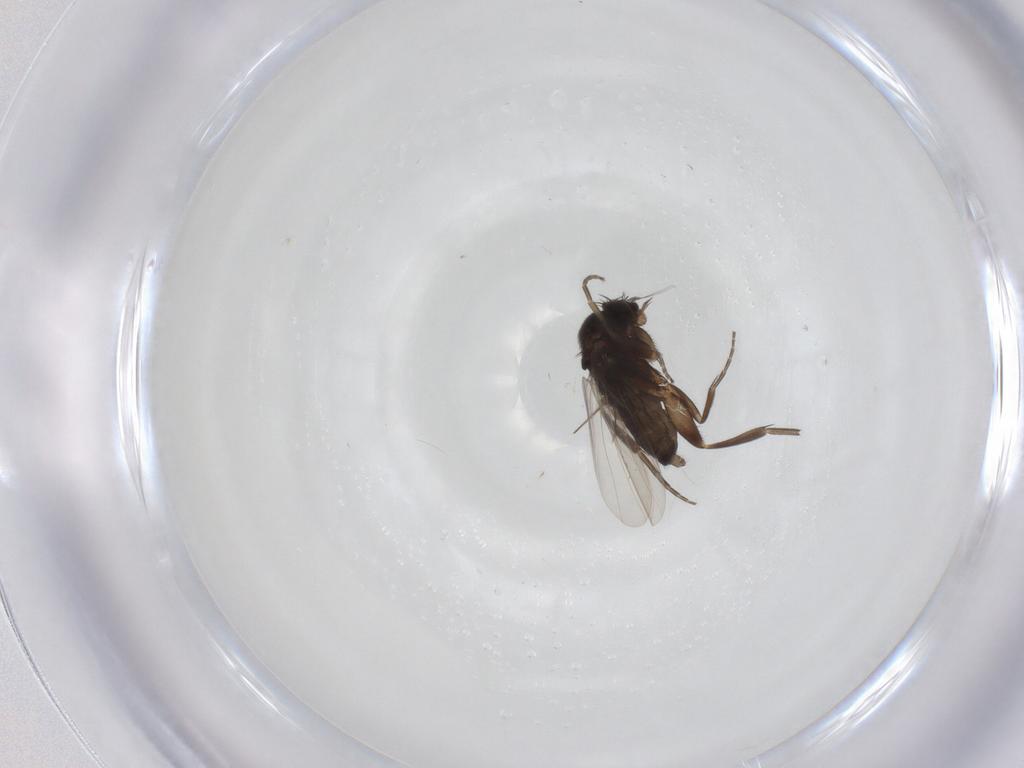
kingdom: Animalia
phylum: Arthropoda
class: Insecta
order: Diptera
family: Phoridae
